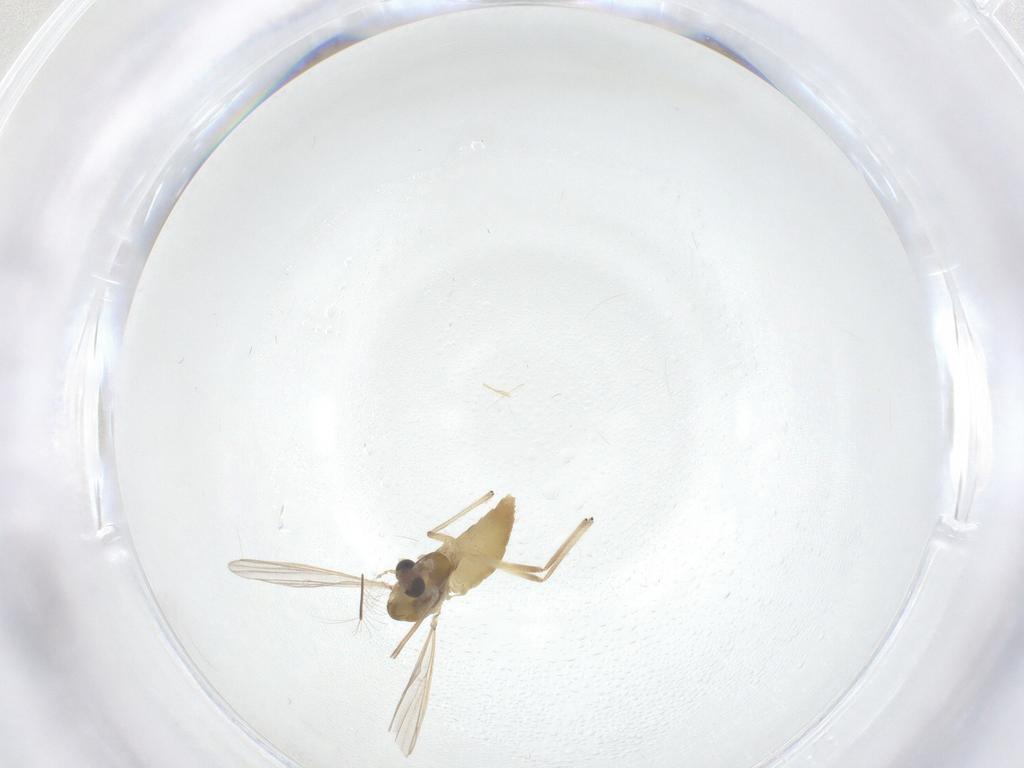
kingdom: Animalia
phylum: Arthropoda
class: Insecta
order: Diptera
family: Chironomidae
